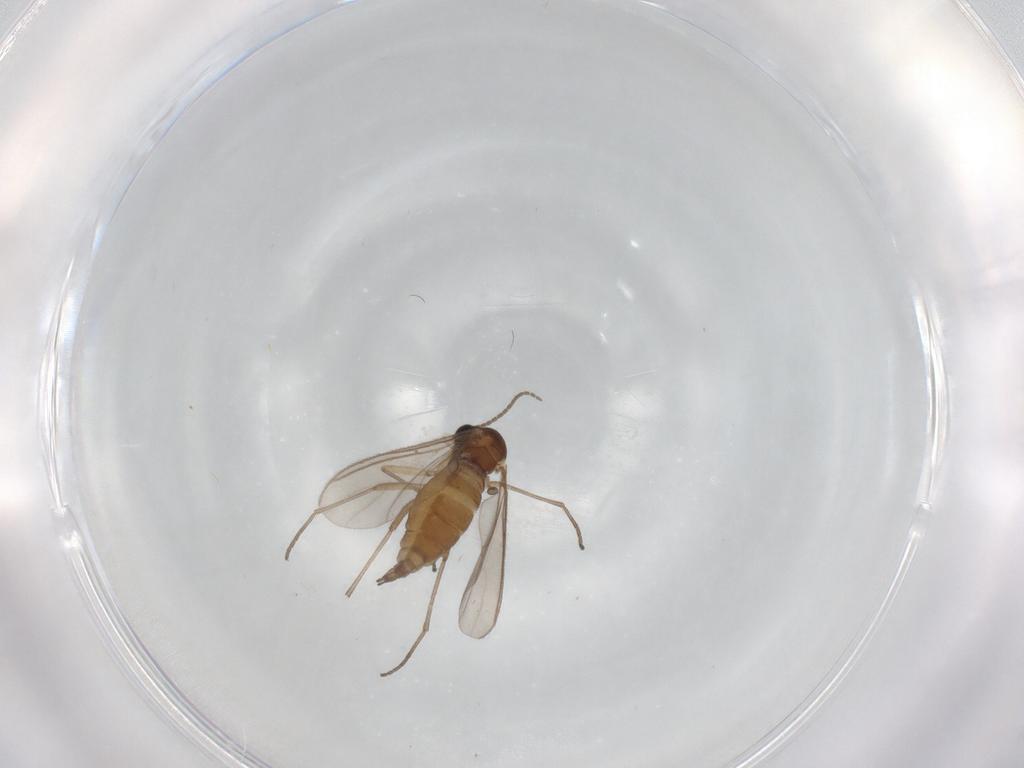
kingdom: Animalia
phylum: Arthropoda
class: Insecta
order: Diptera
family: Sciaridae
